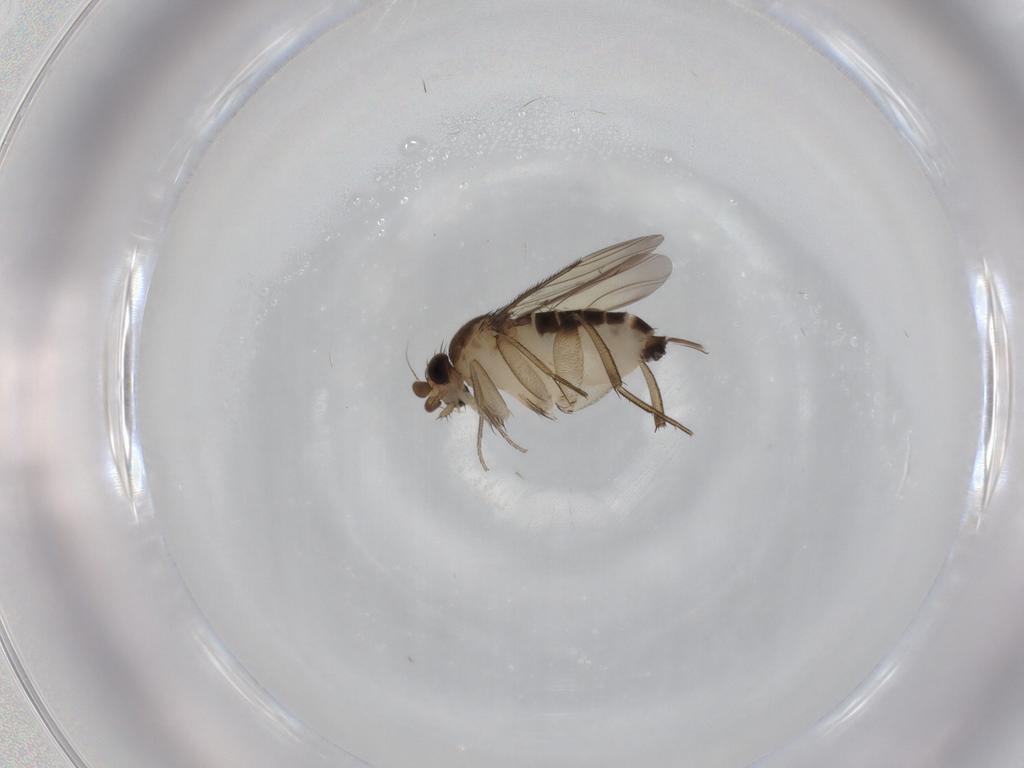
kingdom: Animalia
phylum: Arthropoda
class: Insecta
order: Diptera
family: Phoridae
